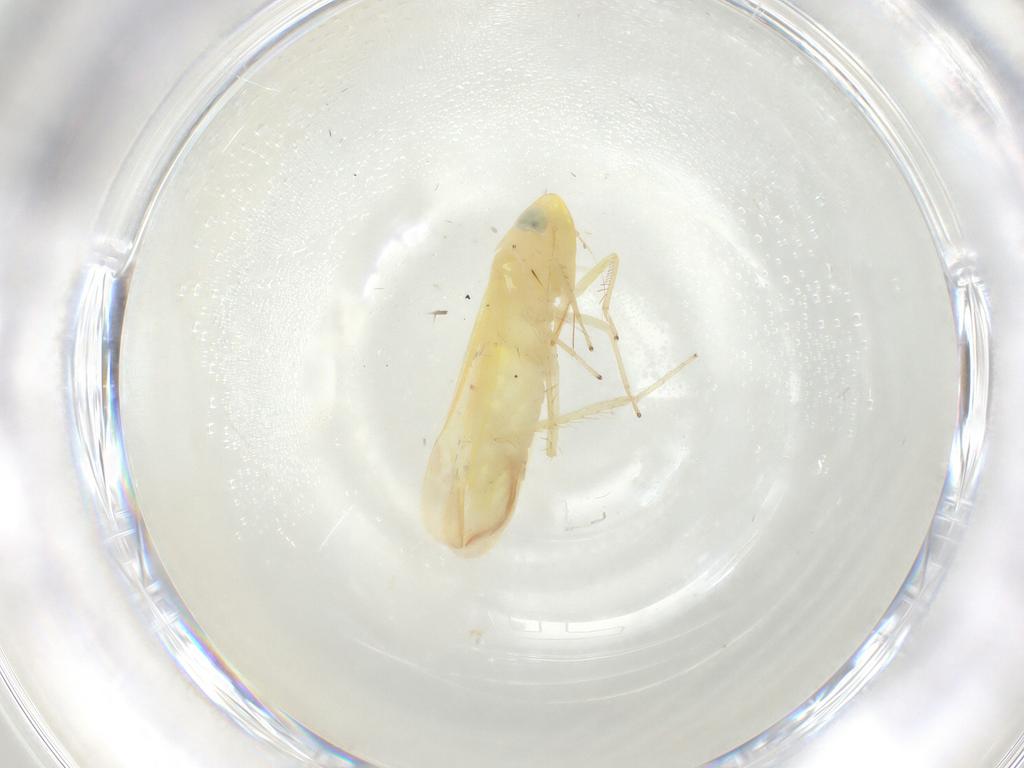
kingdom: Animalia
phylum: Arthropoda
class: Insecta
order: Hemiptera
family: Cicadellidae
